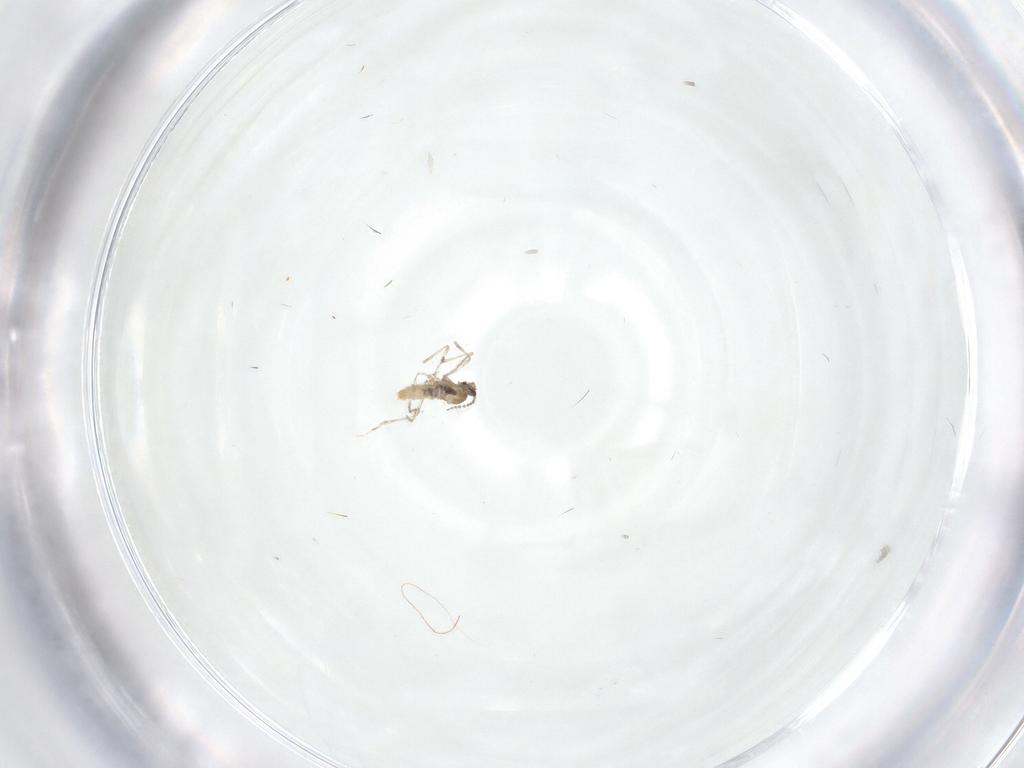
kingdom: Animalia
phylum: Arthropoda
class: Insecta
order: Diptera
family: Cecidomyiidae
